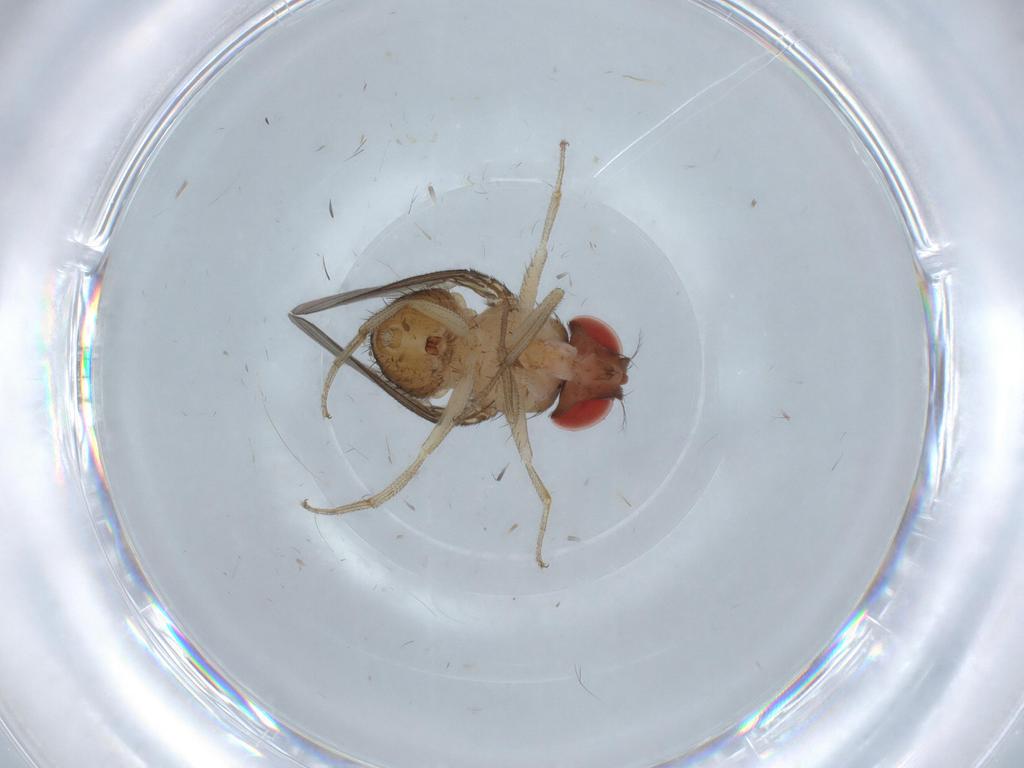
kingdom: Animalia
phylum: Arthropoda
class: Insecta
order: Diptera
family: Drosophilidae
